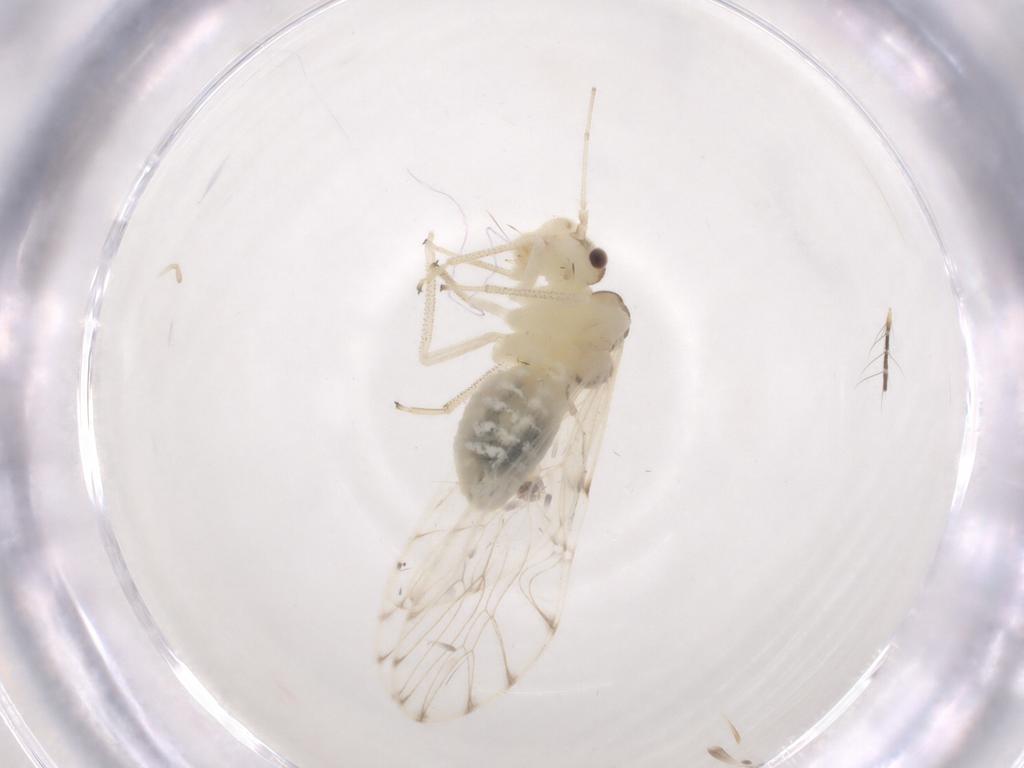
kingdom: Animalia
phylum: Arthropoda
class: Insecta
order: Psocodea
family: Philotarsidae
